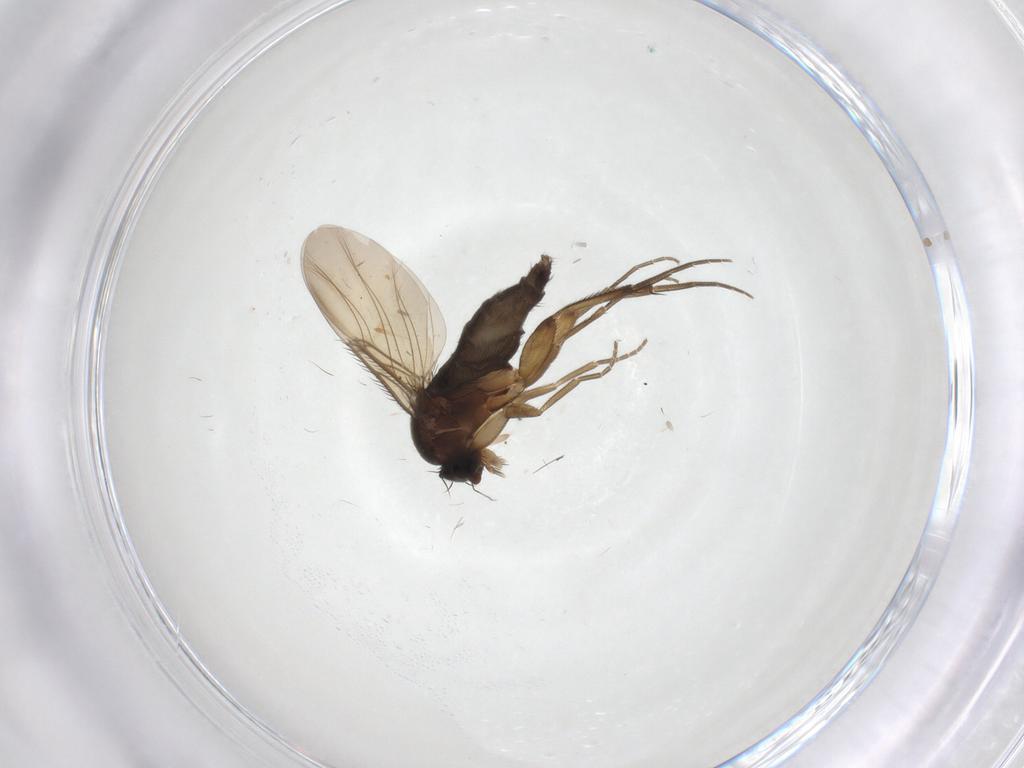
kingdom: Animalia
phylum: Arthropoda
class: Insecta
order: Diptera
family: Phoridae
